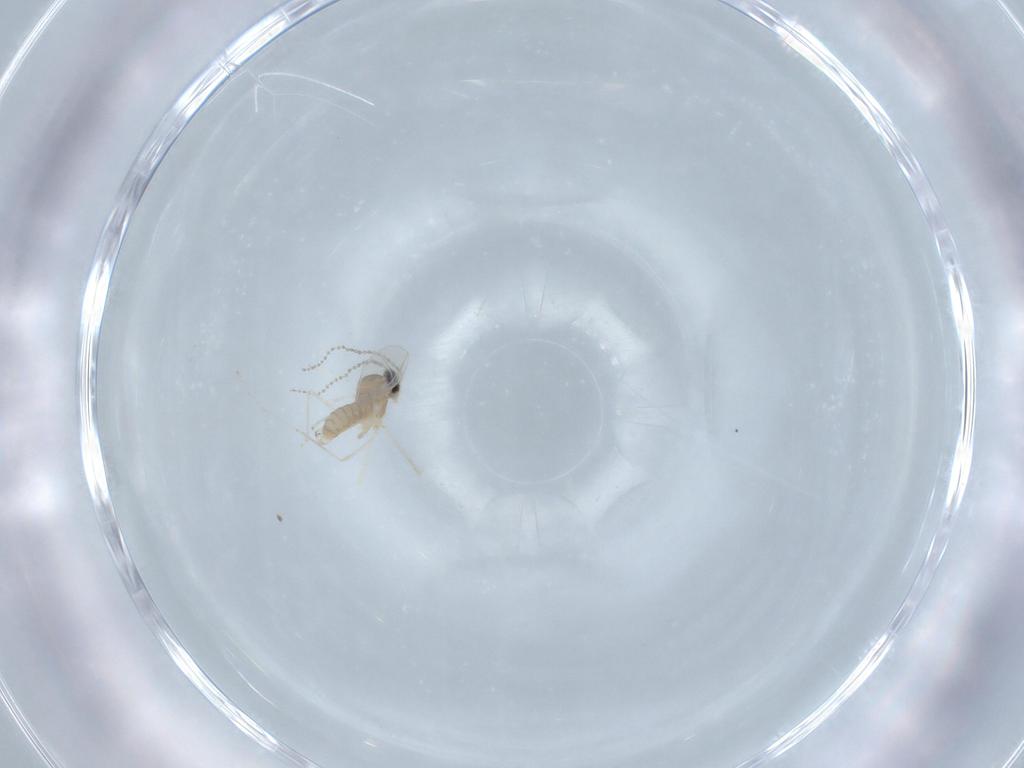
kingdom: Animalia
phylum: Arthropoda
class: Insecta
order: Diptera
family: Cecidomyiidae
